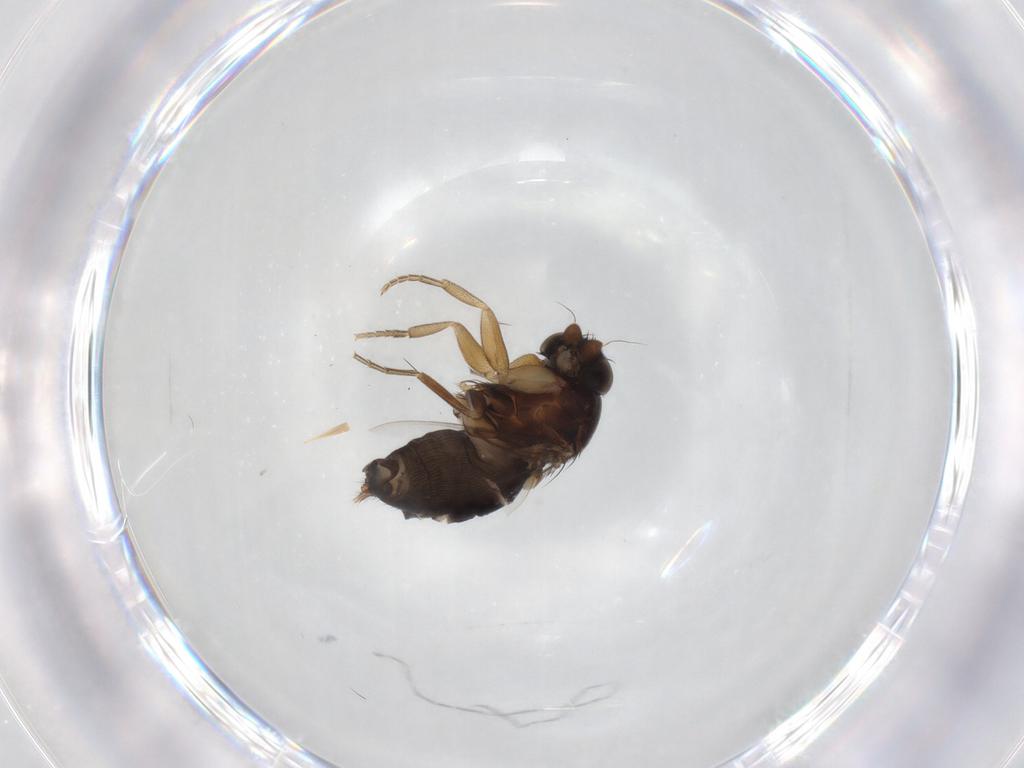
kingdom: Animalia
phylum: Arthropoda
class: Insecta
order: Diptera
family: Phoridae
